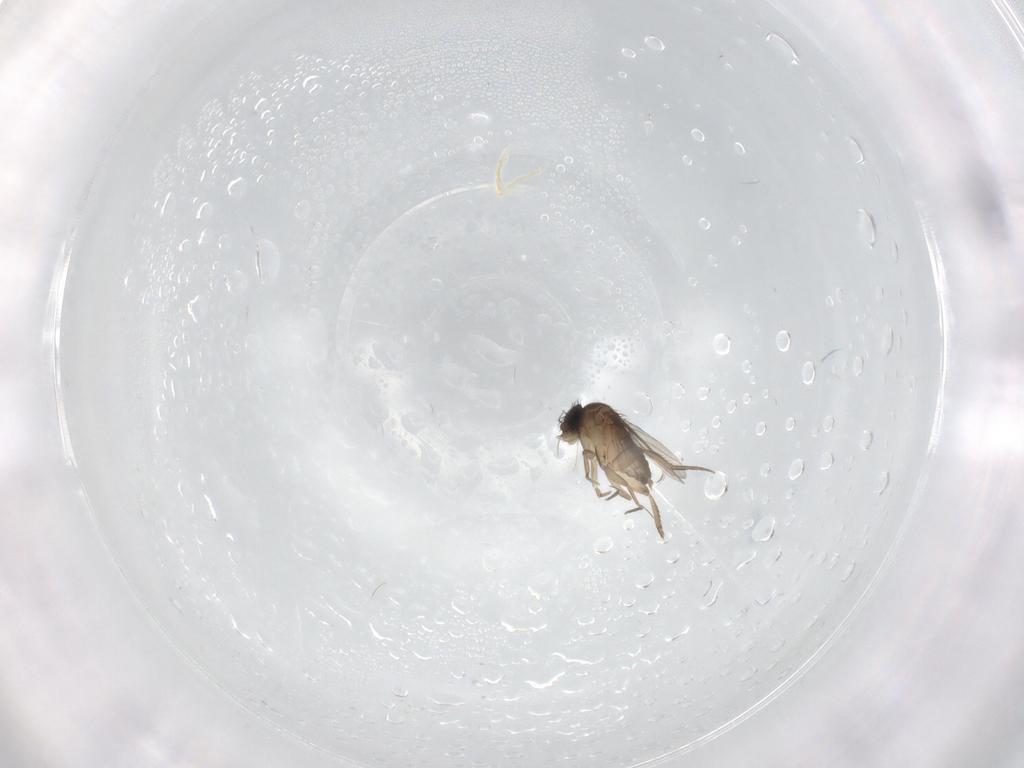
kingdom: Animalia
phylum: Arthropoda
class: Insecta
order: Diptera
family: Phoridae
